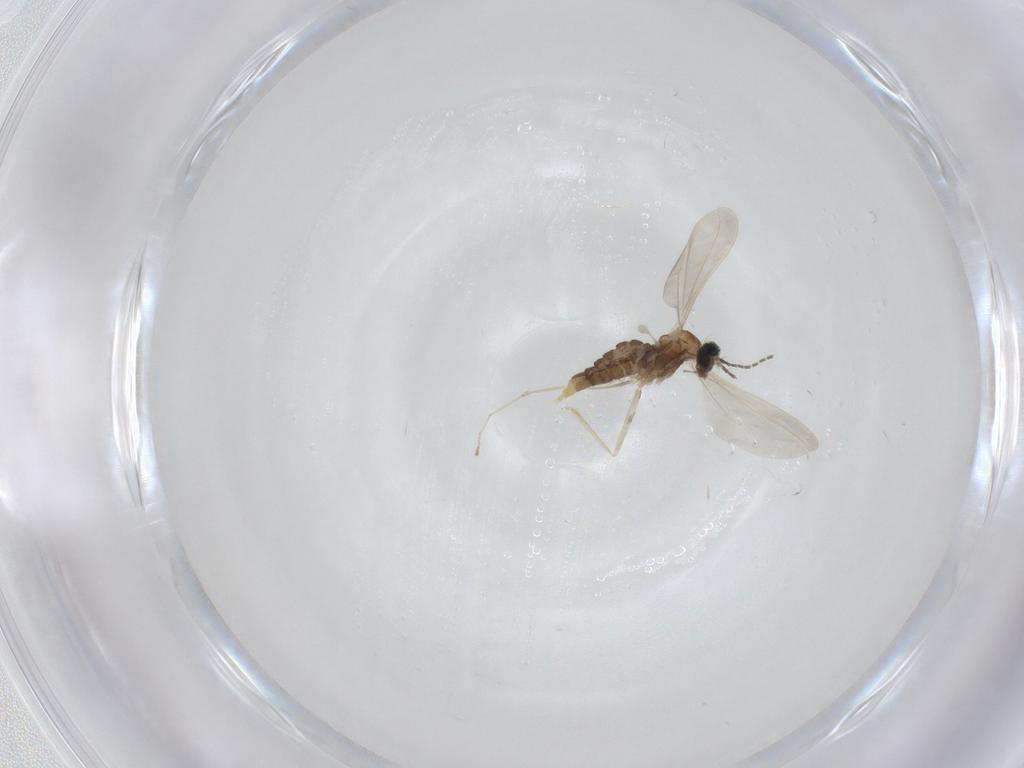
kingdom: Animalia
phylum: Arthropoda
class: Insecta
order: Diptera
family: Cecidomyiidae
